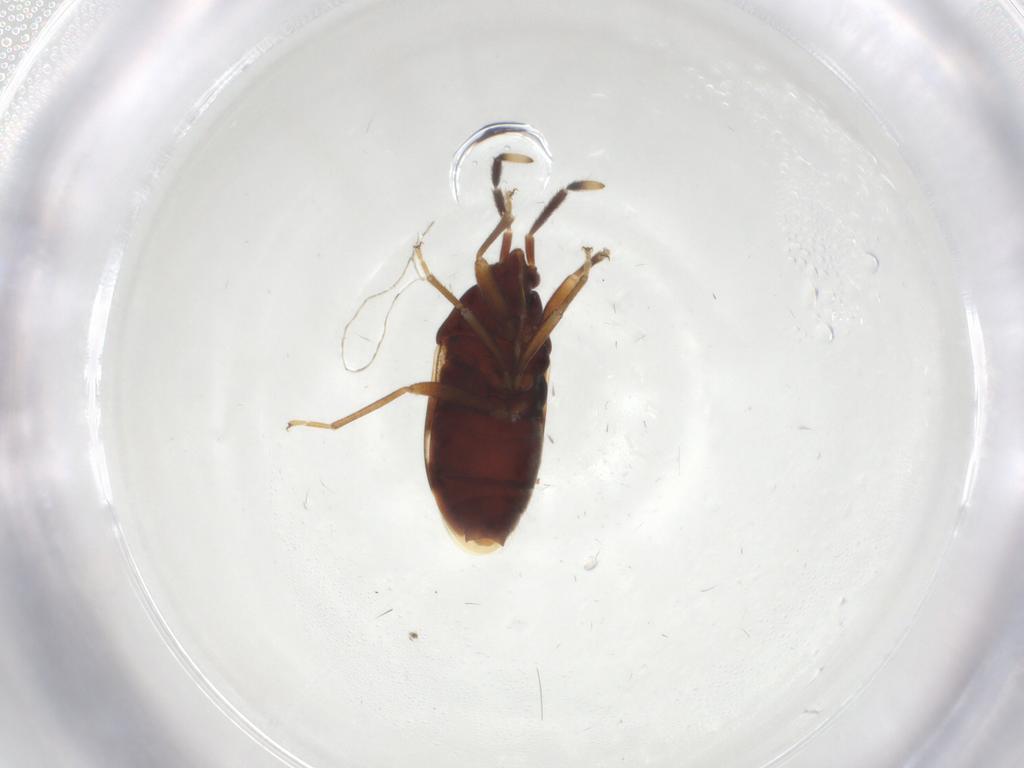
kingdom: Animalia
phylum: Arthropoda
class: Insecta
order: Hemiptera
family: Rhyparochromidae
